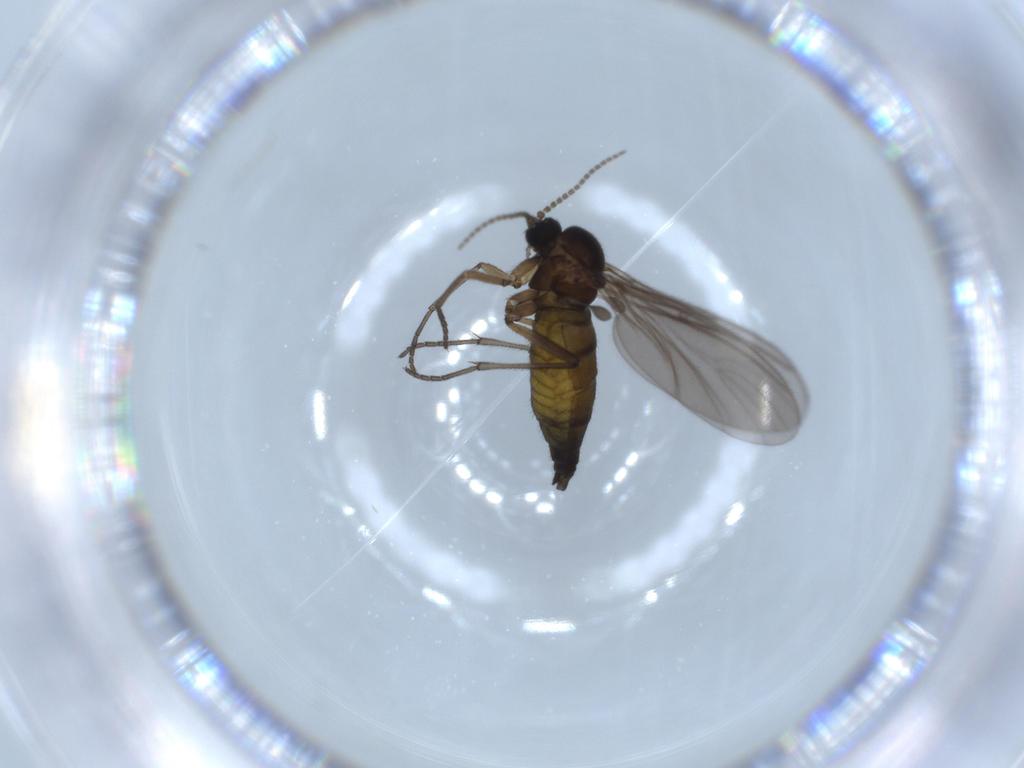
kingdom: Animalia
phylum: Arthropoda
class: Insecta
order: Diptera
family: Sciaridae
